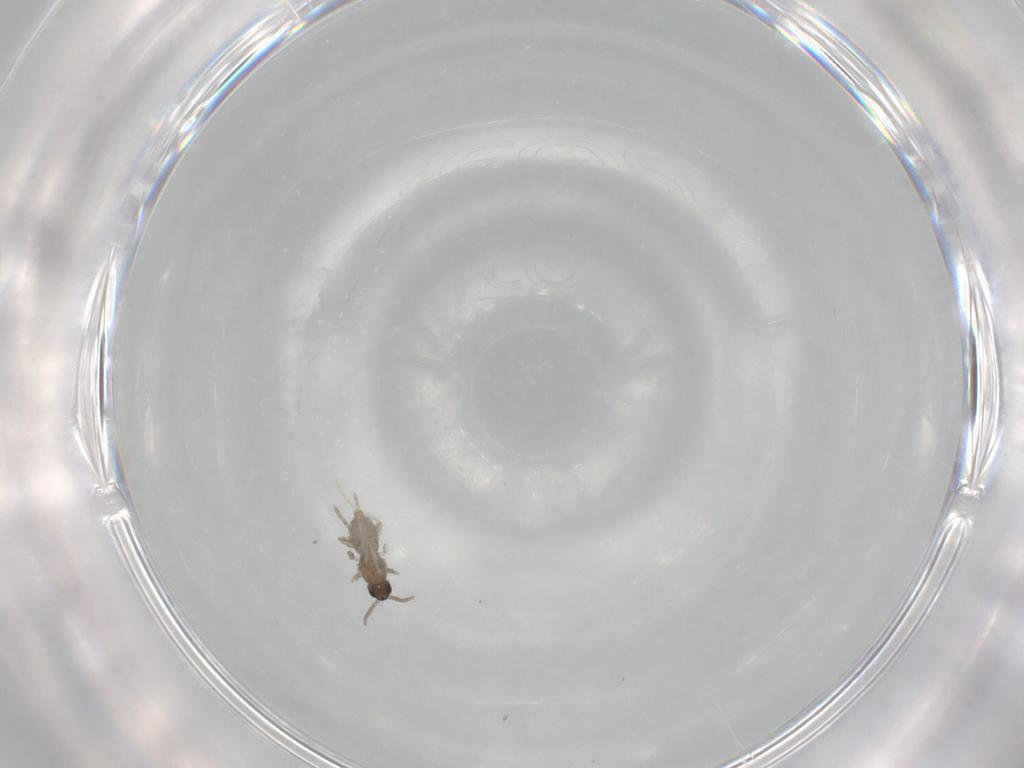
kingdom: Animalia
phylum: Arthropoda
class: Insecta
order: Diptera
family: Cecidomyiidae
